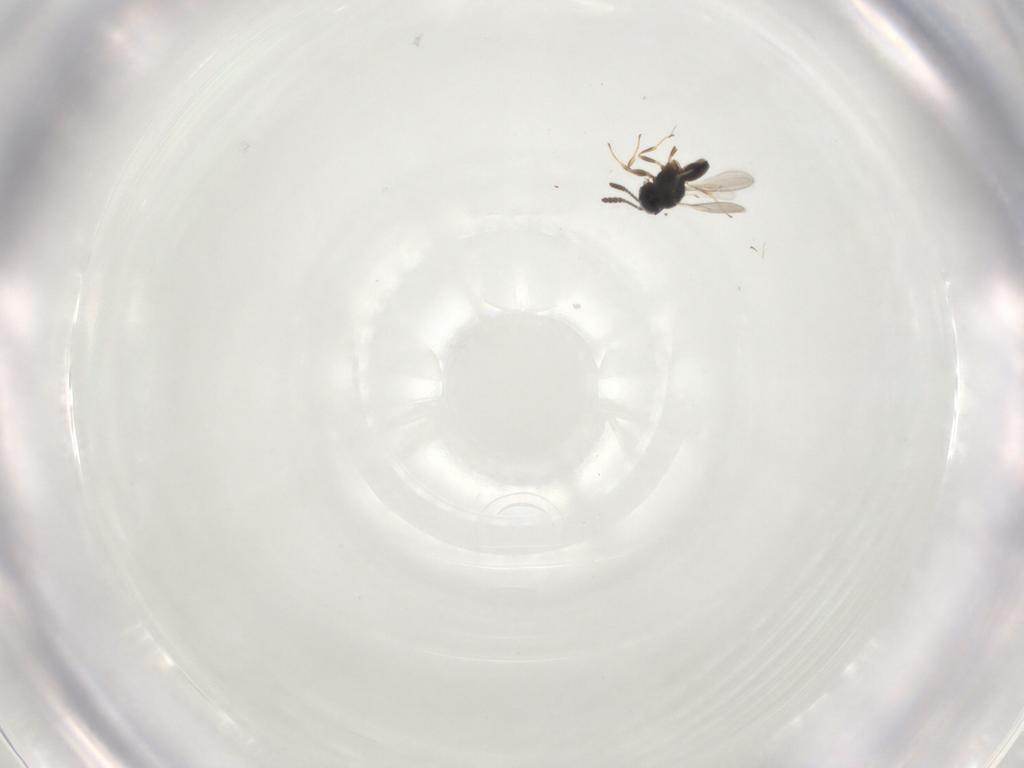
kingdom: Animalia
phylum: Arthropoda
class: Insecta
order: Hymenoptera
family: Scelionidae
